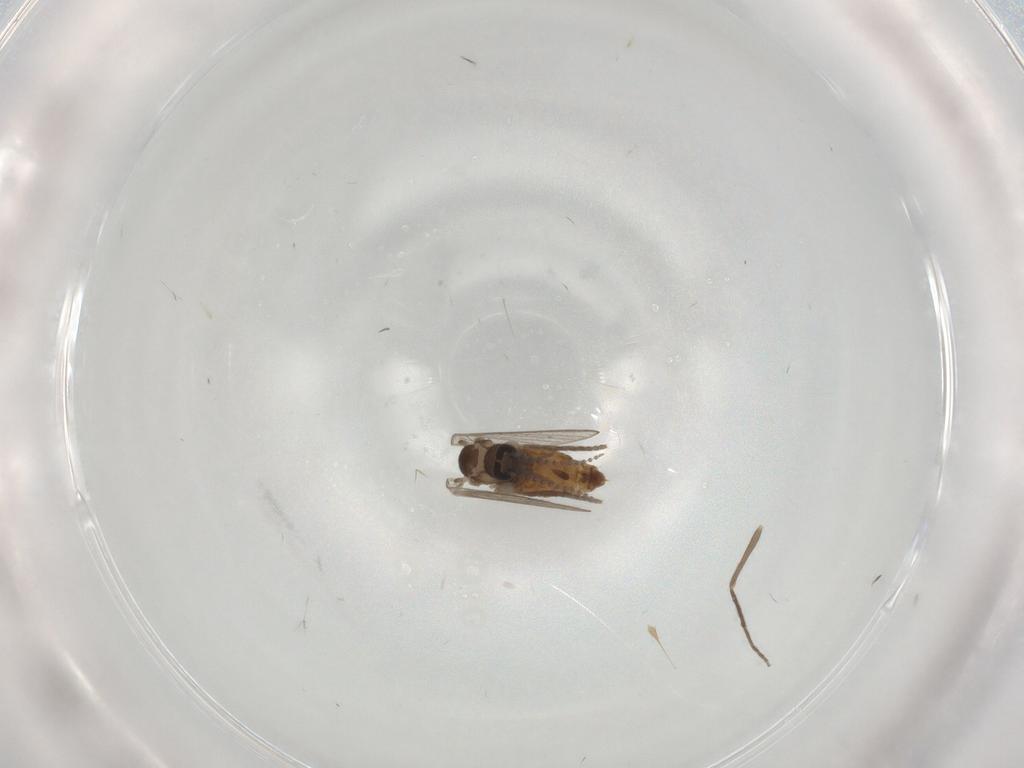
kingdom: Animalia
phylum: Arthropoda
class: Insecta
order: Diptera
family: Psychodidae
